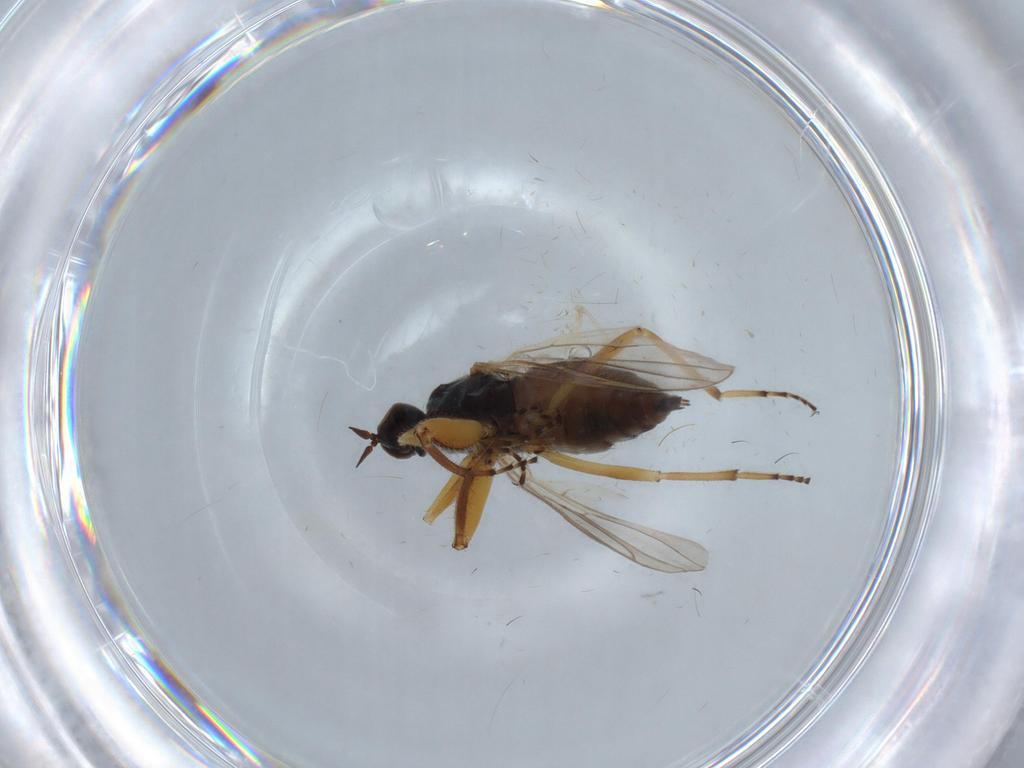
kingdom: Animalia
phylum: Arthropoda
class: Insecta
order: Diptera
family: Hybotidae
